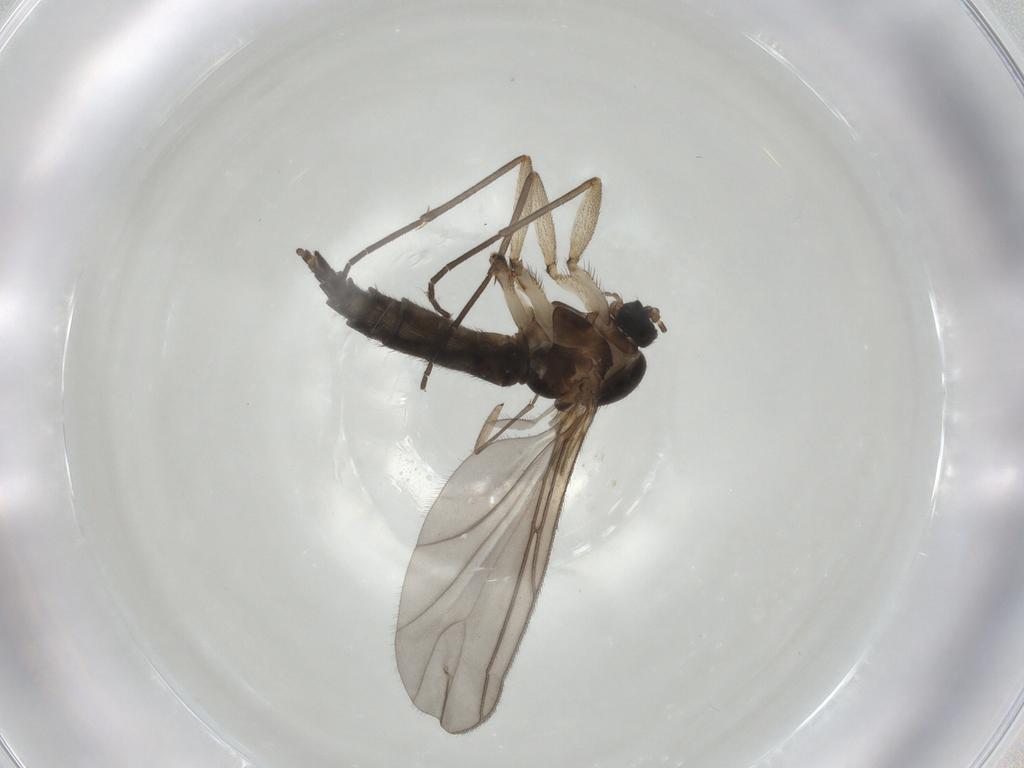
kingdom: Animalia
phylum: Arthropoda
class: Insecta
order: Diptera
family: Sciaridae
